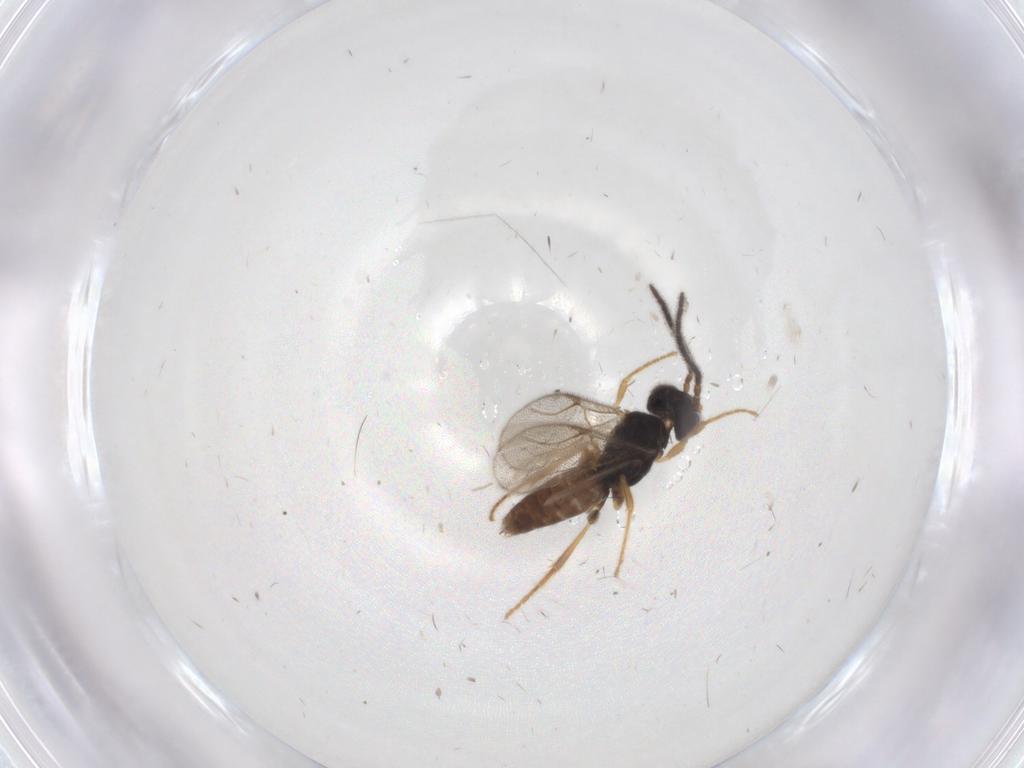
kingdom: Animalia
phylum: Arthropoda
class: Insecta
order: Hymenoptera
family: Dryinidae
